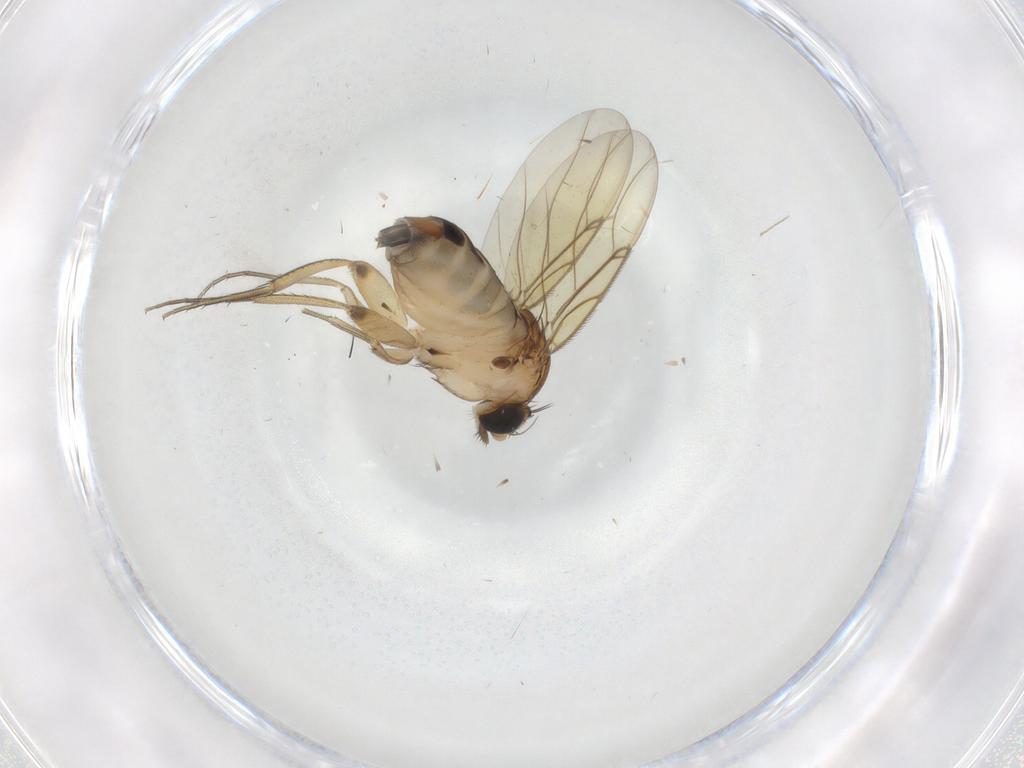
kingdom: Animalia
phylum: Arthropoda
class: Insecta
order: Diptera
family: Phoridae
